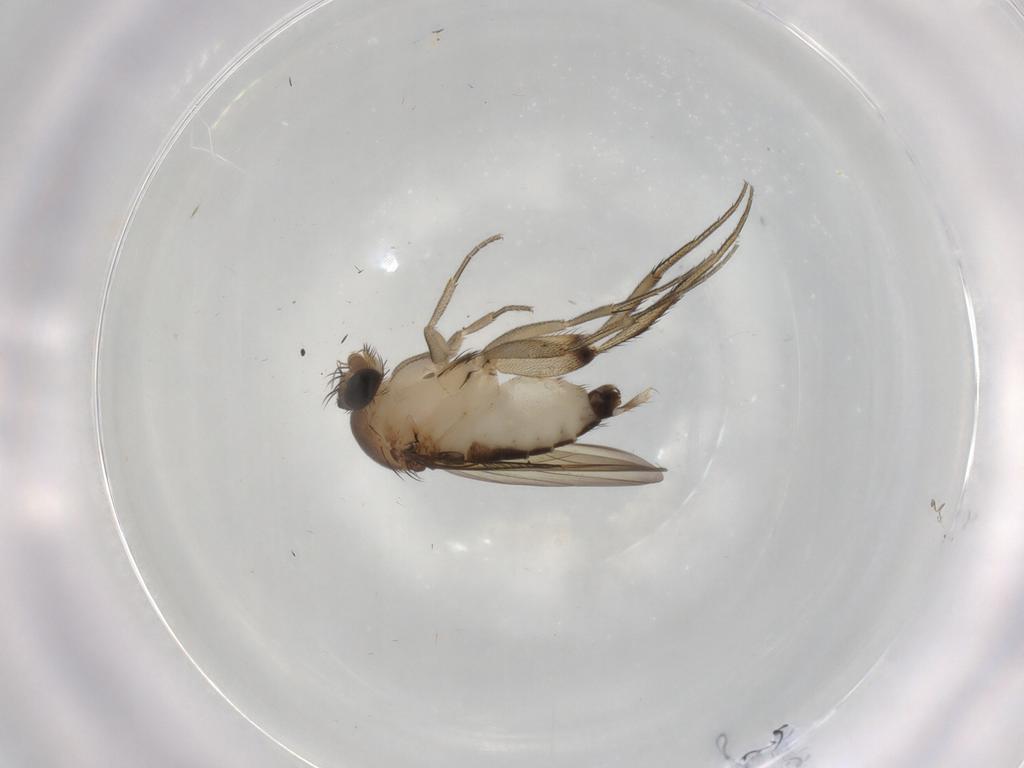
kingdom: Animalia
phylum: Arthropoda
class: Insecta
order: Diptera
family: Phoridae
